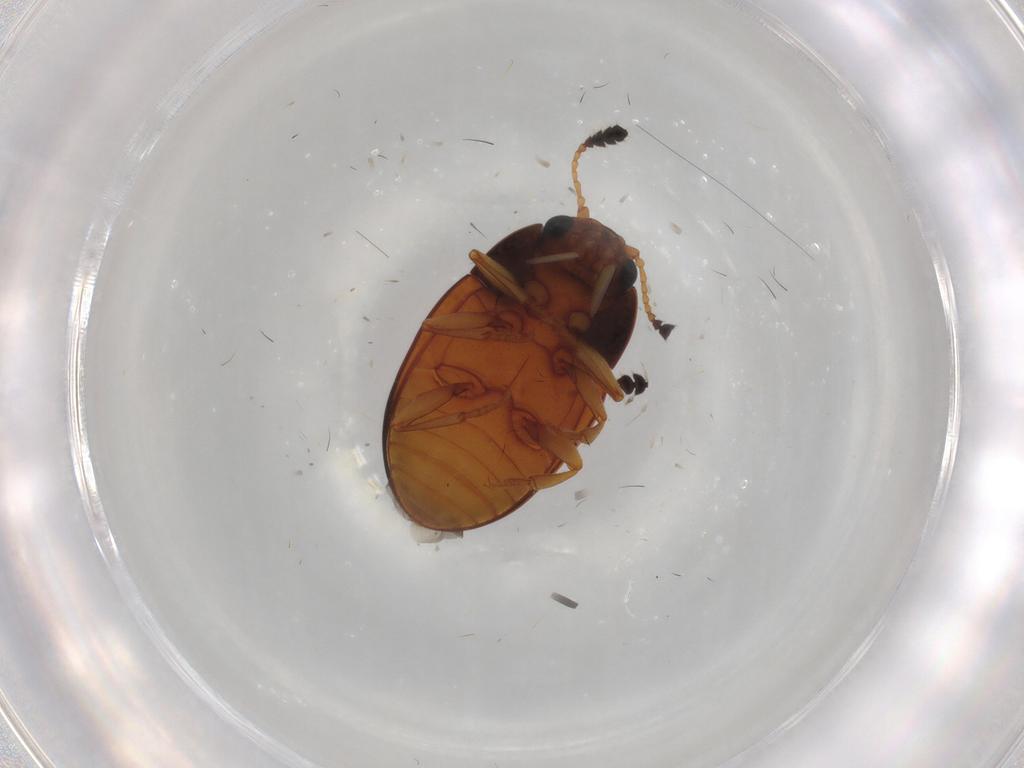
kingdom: Animalia
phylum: Arthropoda
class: Insecta
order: Coleoptera
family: Erotylidae
